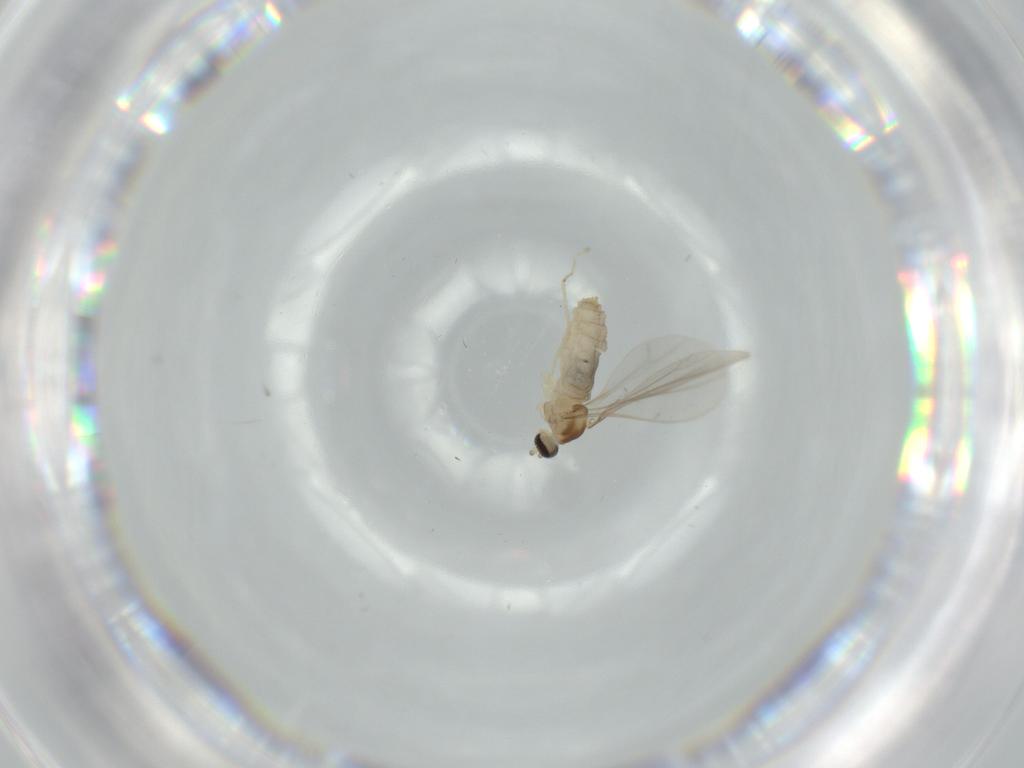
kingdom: Animalia
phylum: Arthropoda
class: Insecta
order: Diptera
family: Cecidomyiidae
